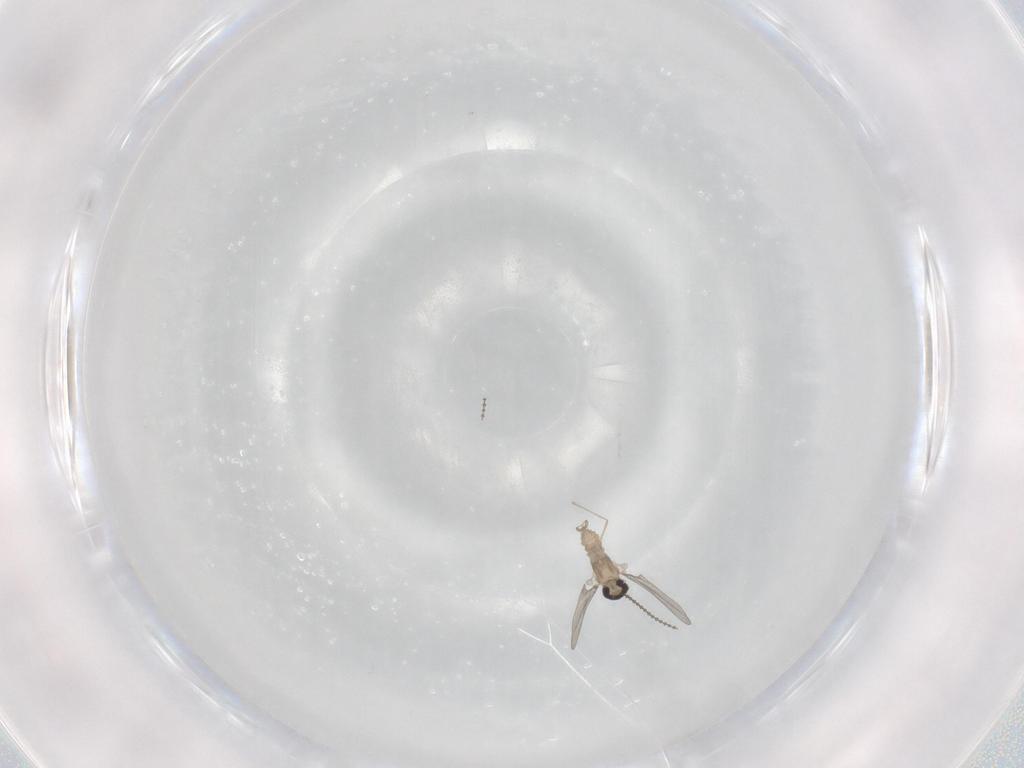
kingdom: Animalia
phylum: Arthropoda
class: Insecta
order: Diptera
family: Cecidomyiidae
